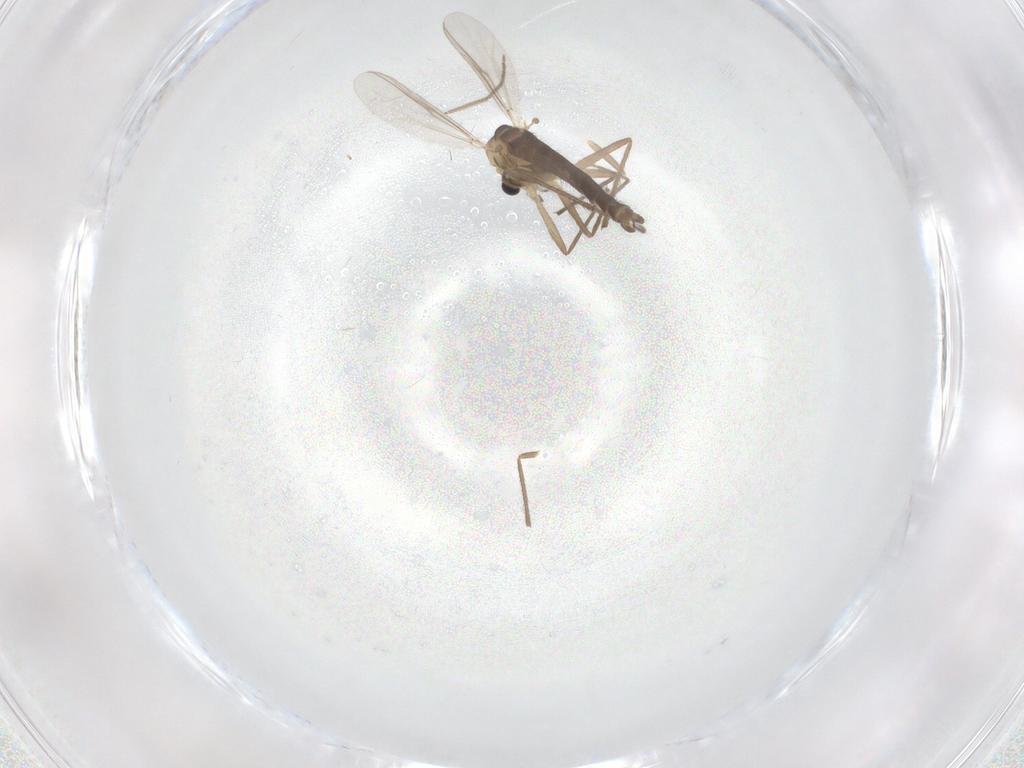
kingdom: Animalia
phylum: Arthropoda
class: Insecta
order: Diptera
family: Chironomidae
